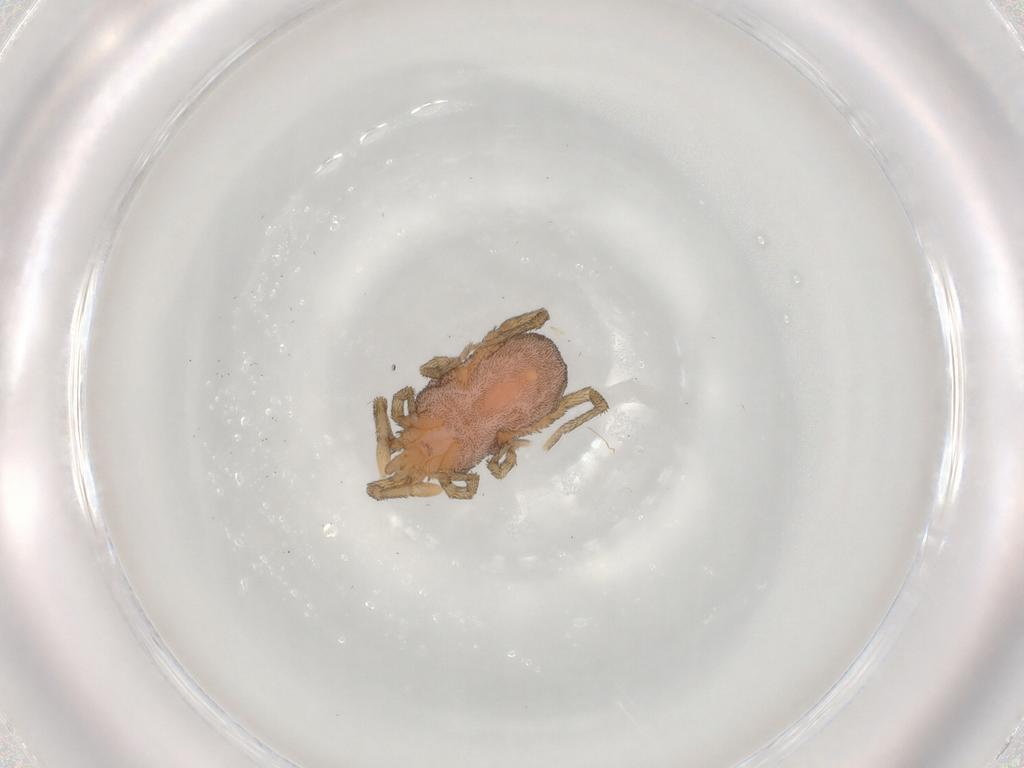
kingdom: Animalia
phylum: Arthropoda
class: Arachnida
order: Trombidiformes
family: Erythraeidae
